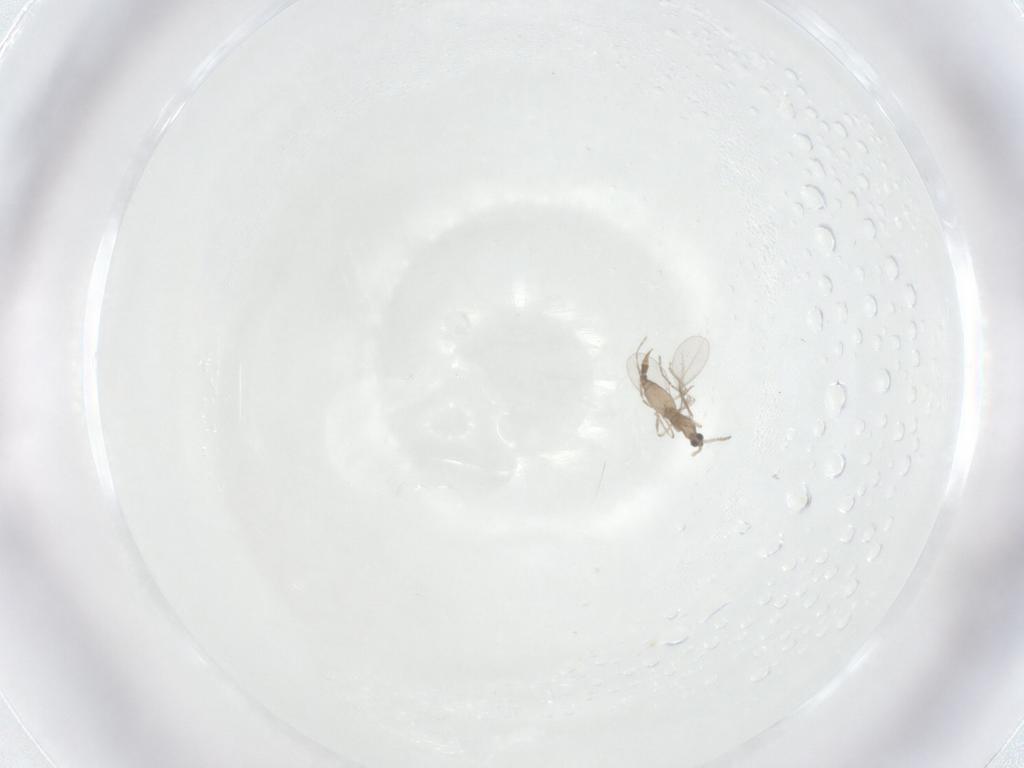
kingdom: Animalia
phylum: Arthropoda
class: Insecta
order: Diptera
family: Cecidomyiidae
